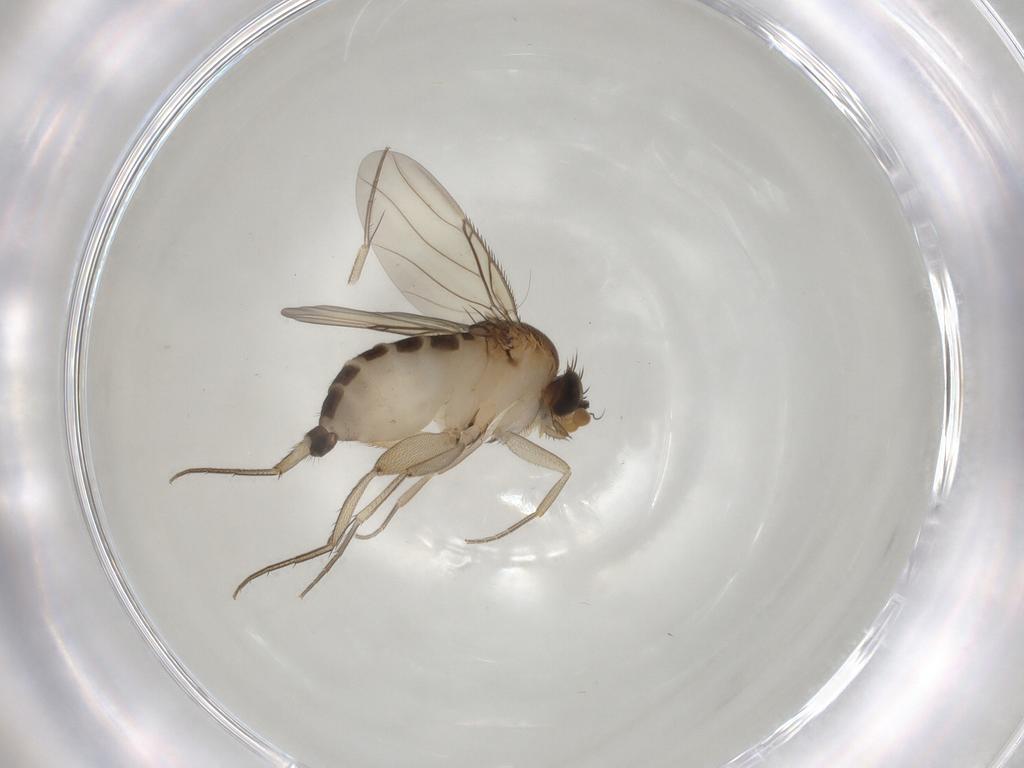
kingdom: Animalia
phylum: Arthropoda
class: Insecta
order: Diptera
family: Phoridae
